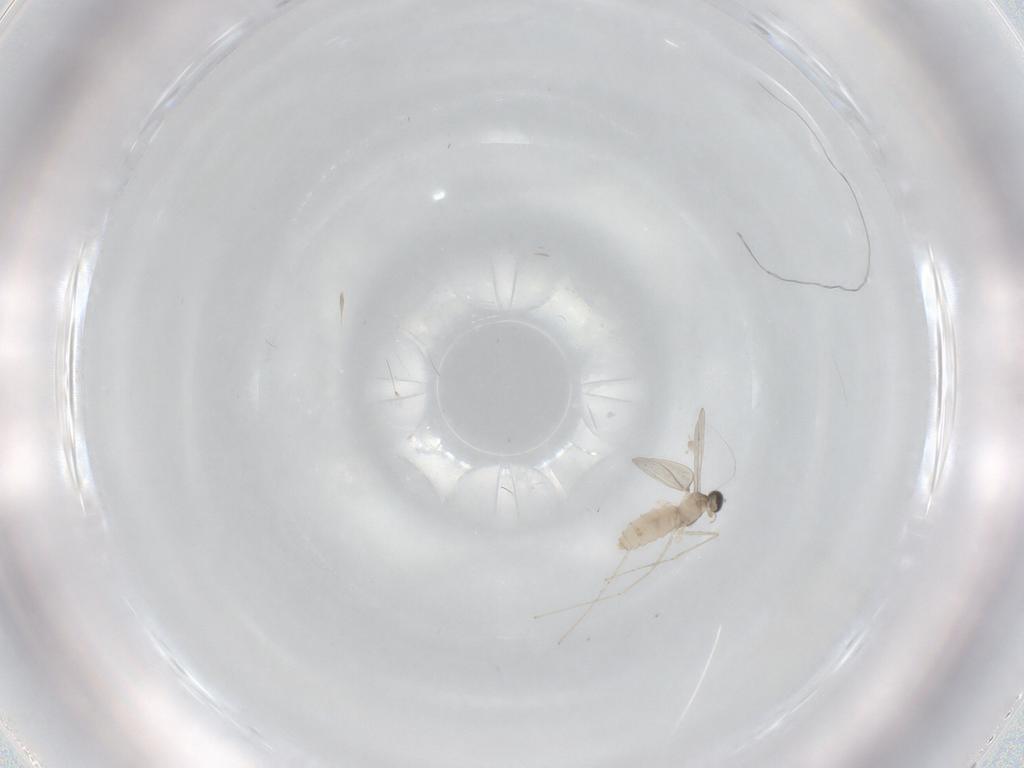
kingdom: Animalia
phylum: Arthropoda
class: Insecta
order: Diptera
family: Cecidomyiidae
